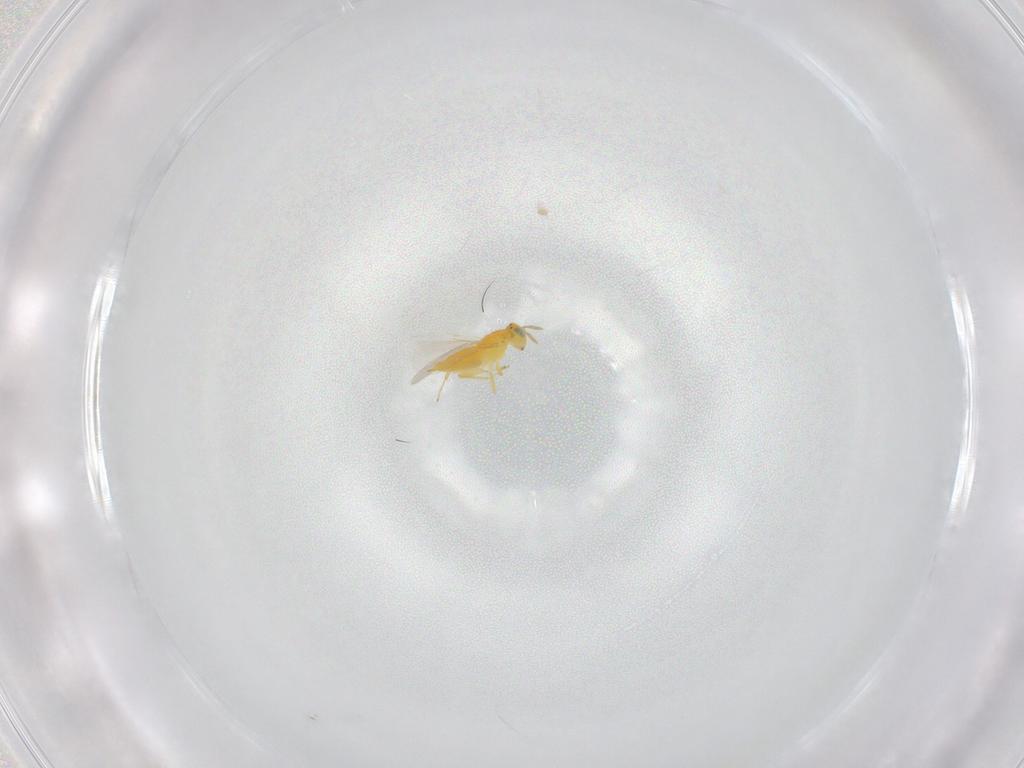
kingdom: Animalia
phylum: Arthropoda
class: Insecta
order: Hymenoptera
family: Aphelinidae
